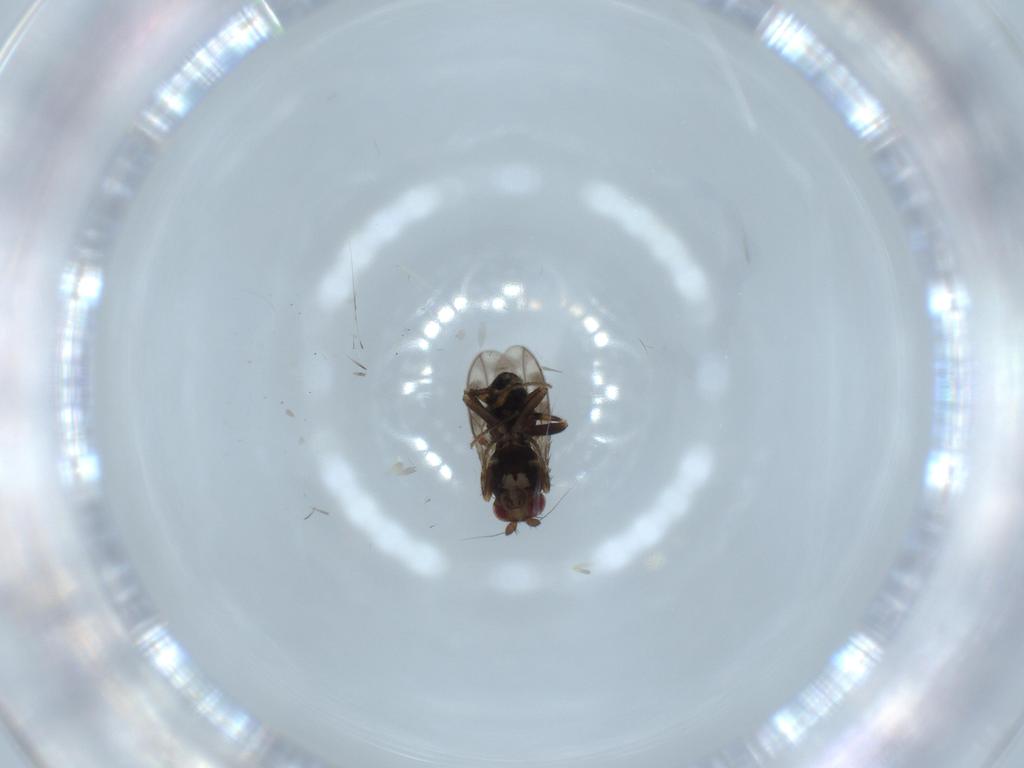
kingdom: Animalia
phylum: Arthropoda
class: Insecta
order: Diptera
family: Sphaeroceridae
